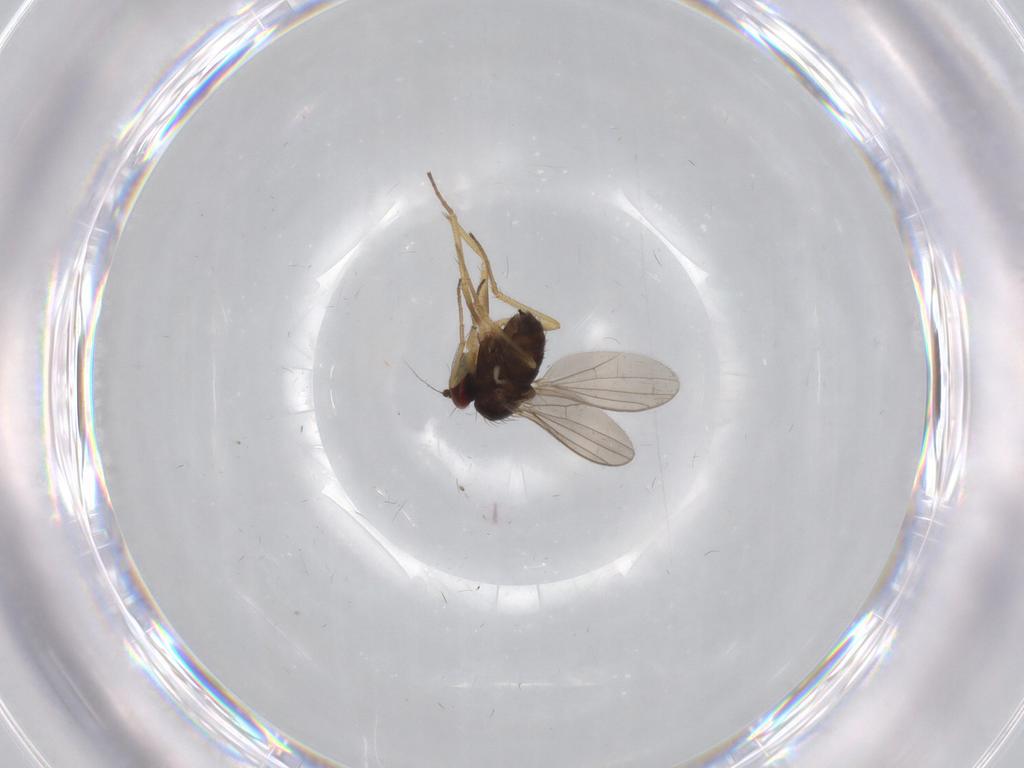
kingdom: Animalia
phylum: Arthropoda
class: Insecta
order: Diptera
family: Dolichopodidae
